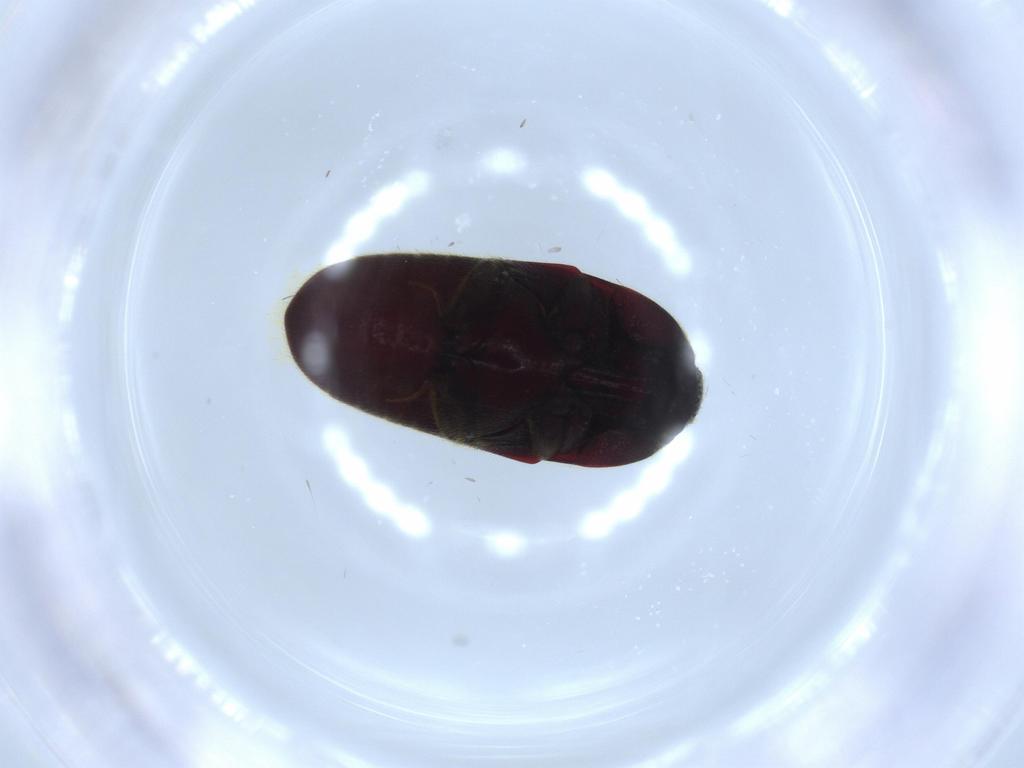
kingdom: Animalia
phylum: Arthropoda
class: Insecta
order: Coleoptera
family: Throscidae
